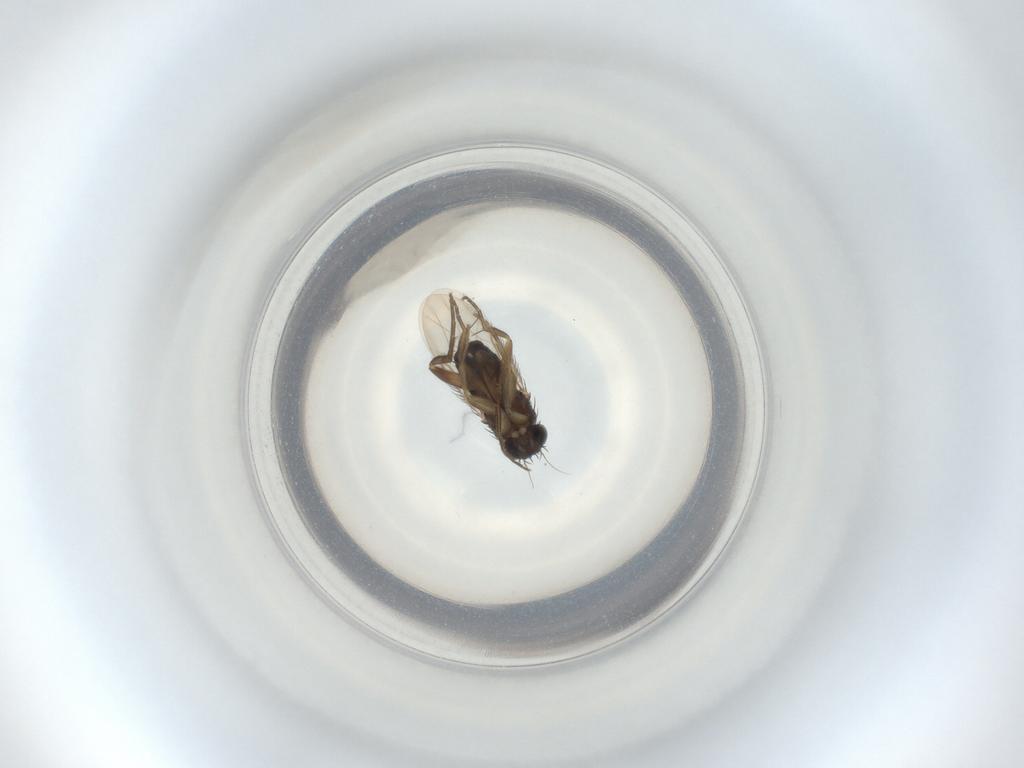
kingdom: Animalia
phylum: Arthropoda
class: Insecta
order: Diptera
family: Phoridae
